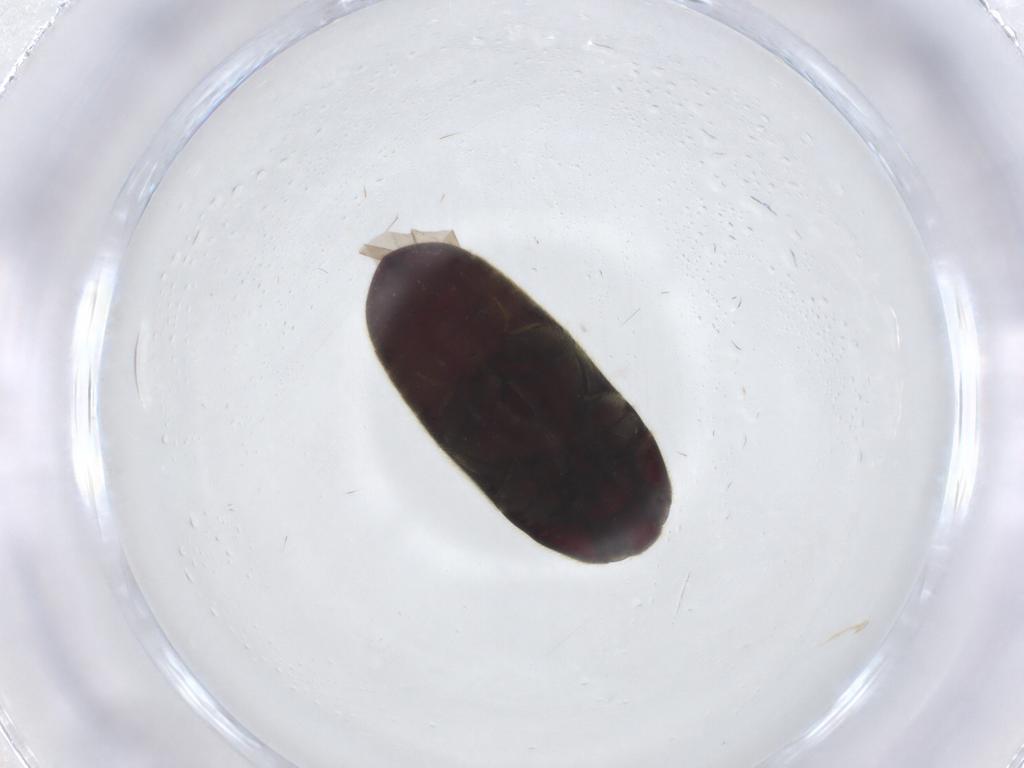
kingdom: Animalia
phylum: Arthropoda
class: Insecta
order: Coleoptera
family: Throscidae
